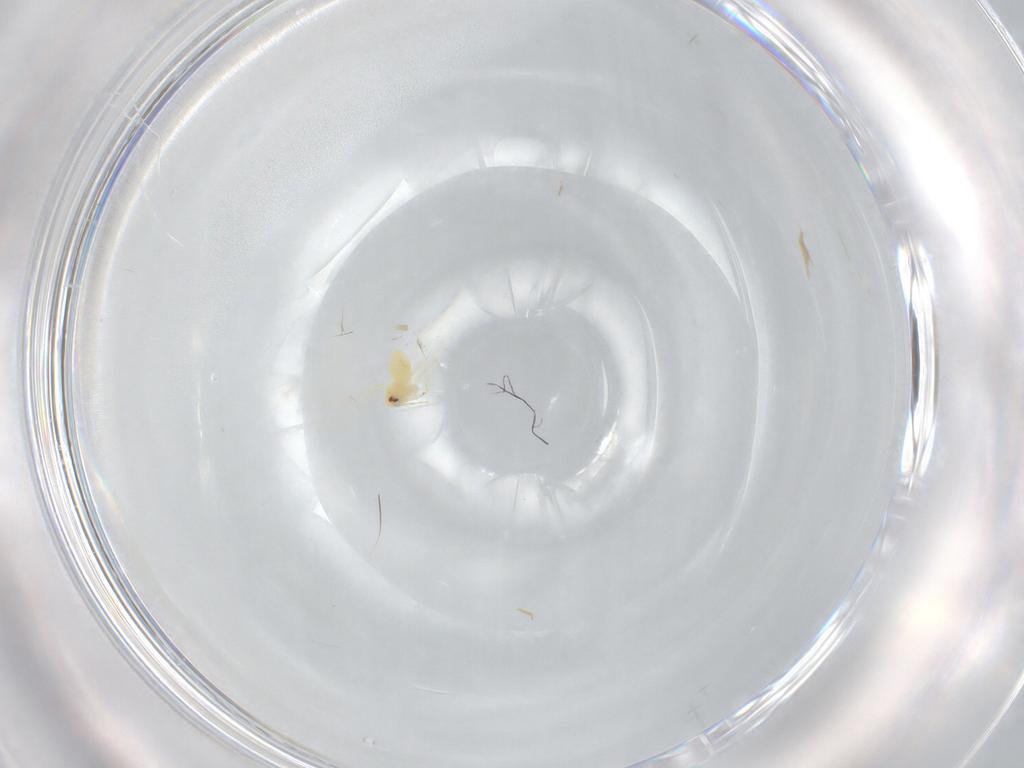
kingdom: Animalia
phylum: Arthropoda
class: Insecta
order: Hemiptera
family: Aleyrodidae
